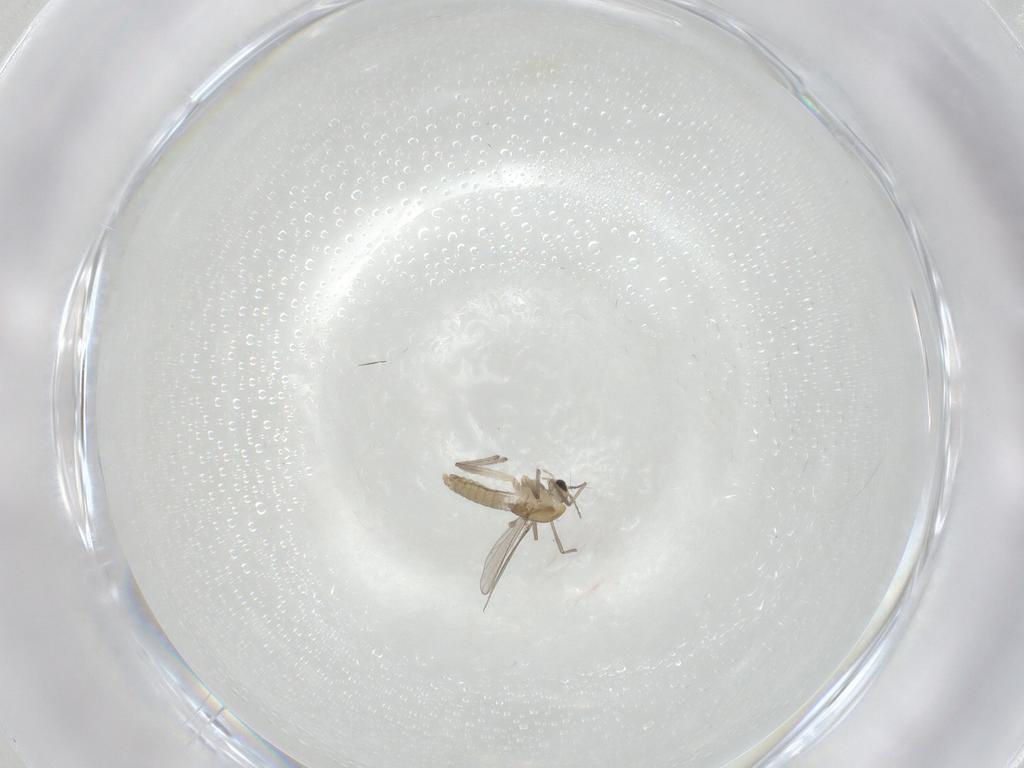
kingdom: Animalia
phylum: Arthropoda
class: Insecta
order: Diptera
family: Chironomidae
